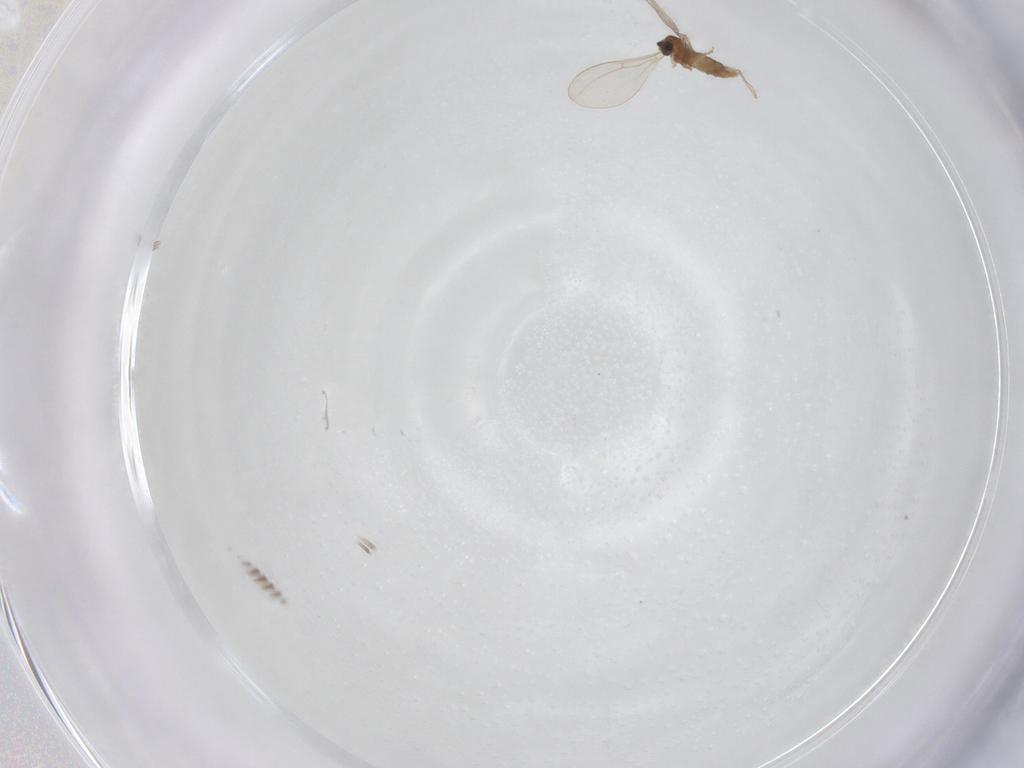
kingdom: Animalia
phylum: Arthropoda
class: Insecta
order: Diptera
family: Cecidomyiidae
